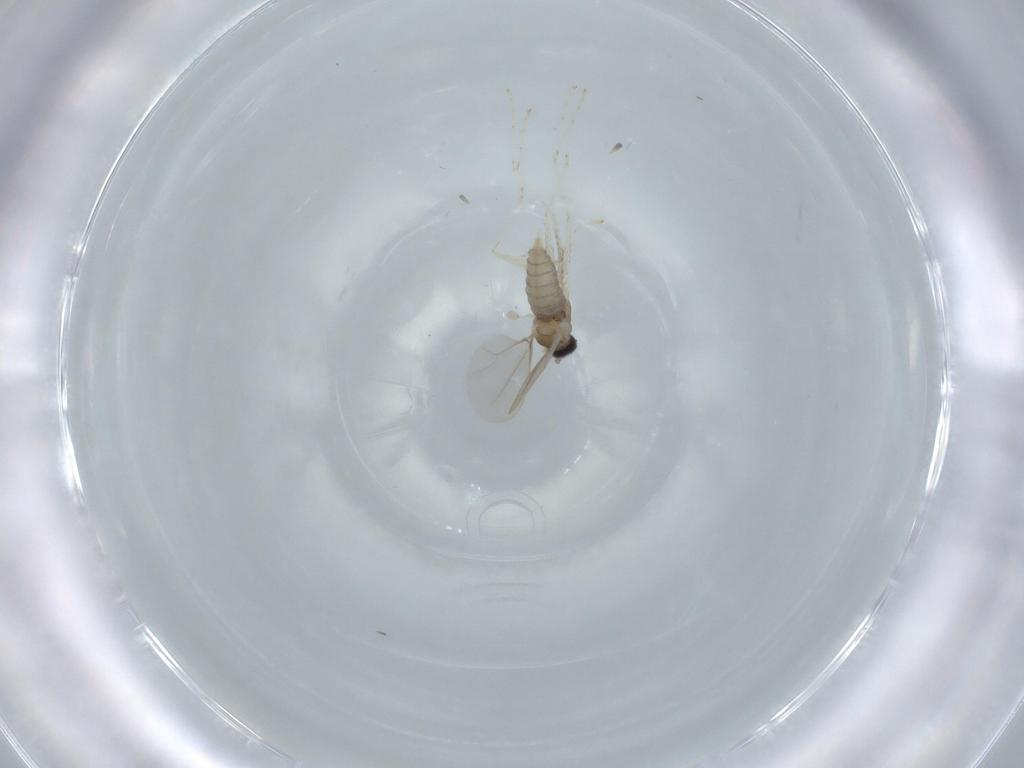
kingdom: Animalia
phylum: Arthropoda
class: Insecta
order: Diptera
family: Cecidomyiidae
